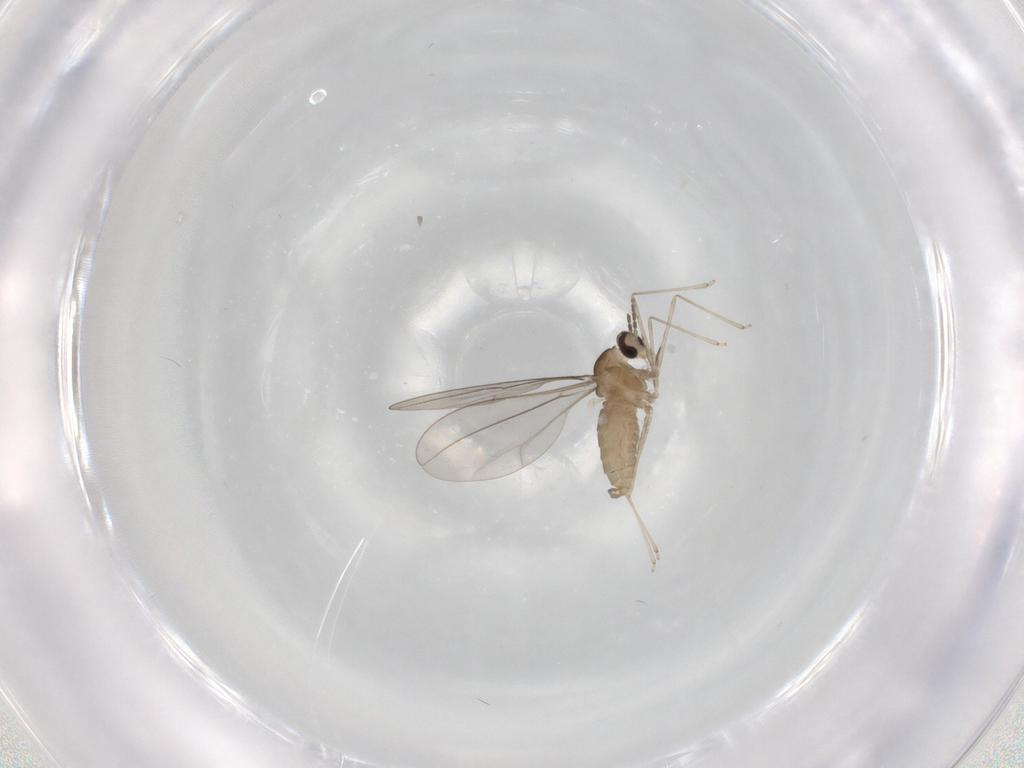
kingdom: Animalia
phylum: Arthropoda
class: Insecta
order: Diptera
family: Cecidomyiidae
